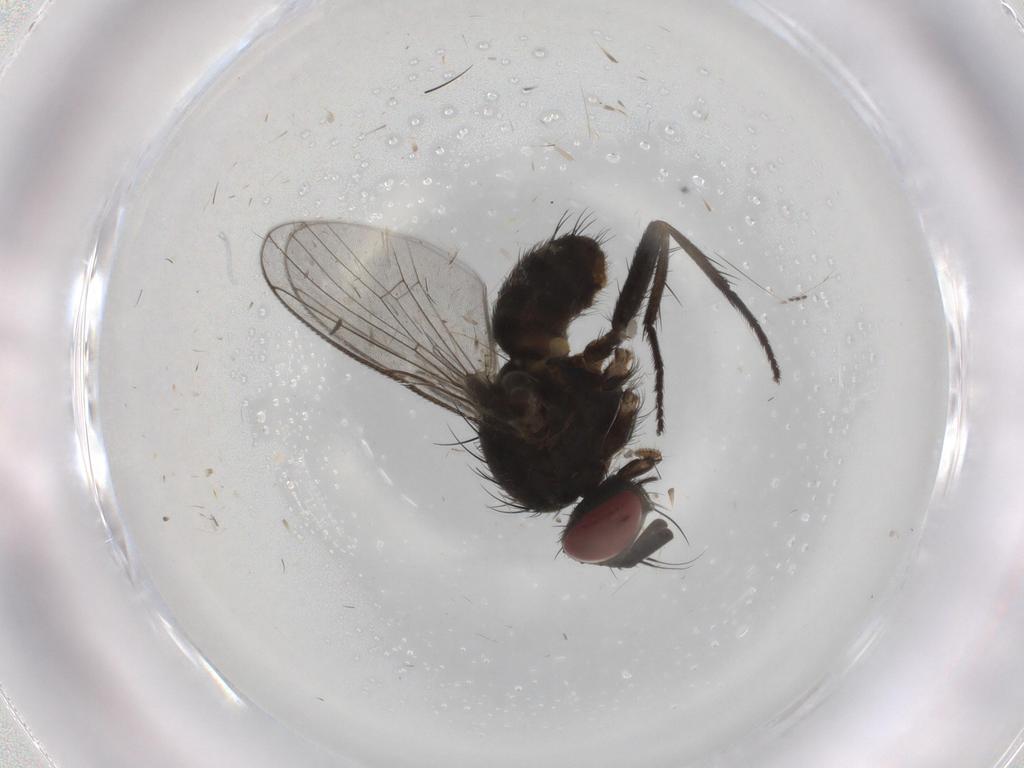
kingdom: Animalia
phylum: Arthropoda
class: Insecta
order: Diptera
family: Muscidae
